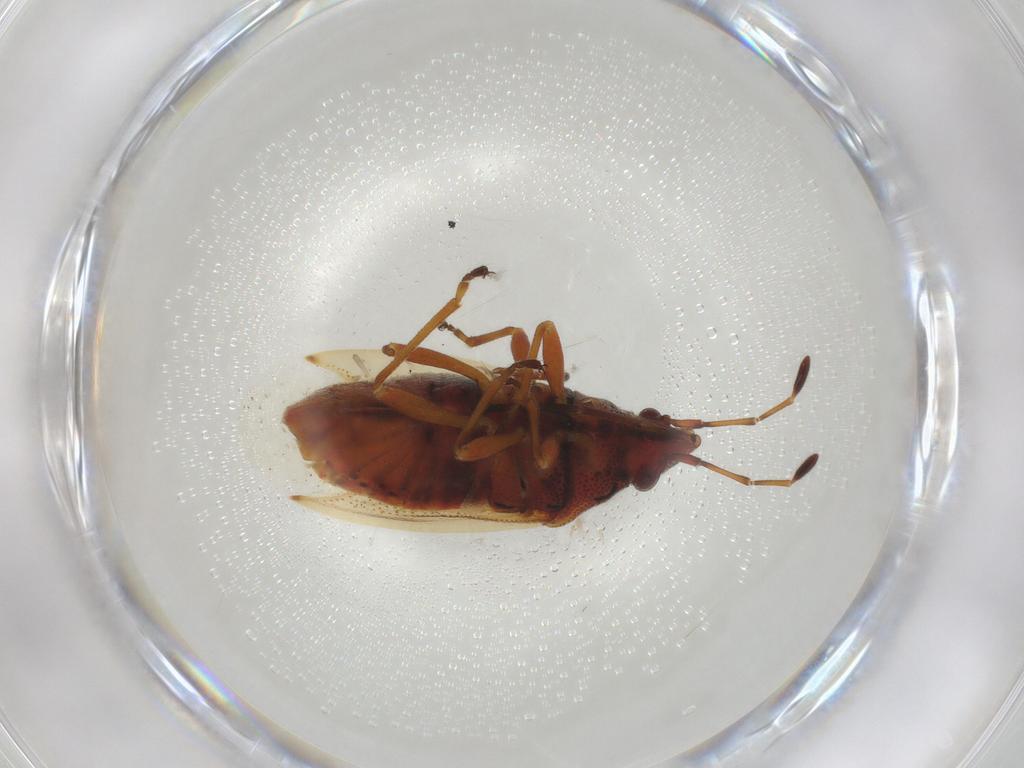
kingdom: Animalia
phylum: Arthropoda
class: Insecta
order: Hemiptera
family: Lygaeidae
